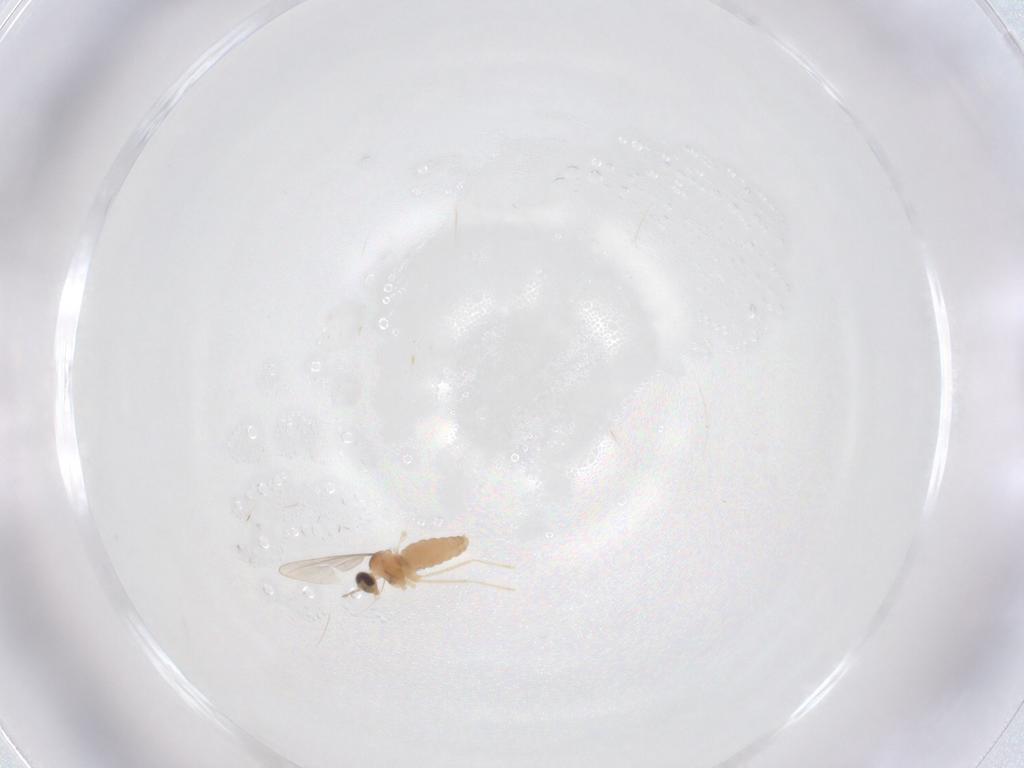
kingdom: Animalia
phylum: Arthropoda
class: Insecta
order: Diptera
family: Cecidomyiidae
